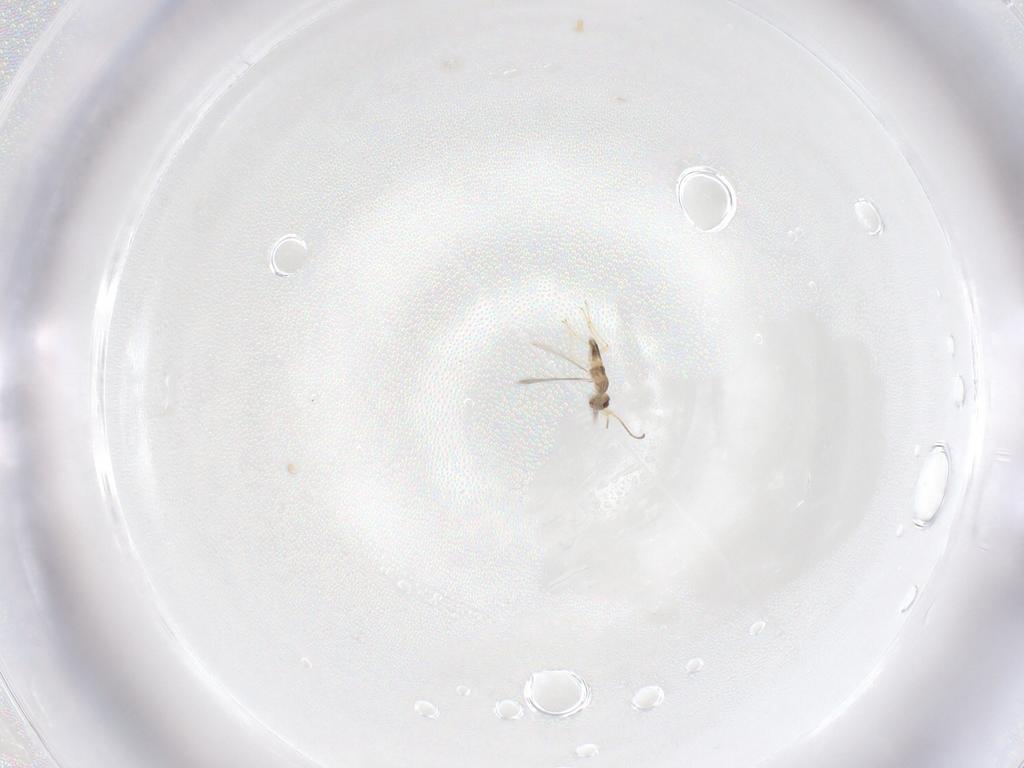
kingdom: Animalia
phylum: Arthropoda
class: Insecta
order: Hymenoptera
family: Mymaridae
